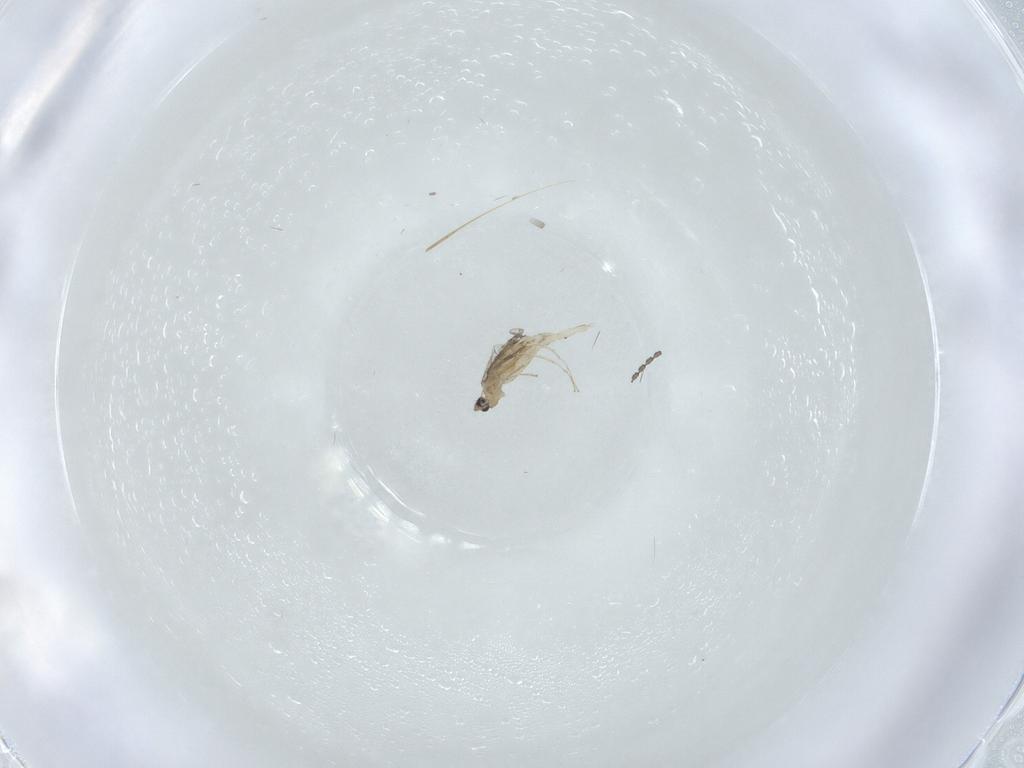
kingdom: Animalia
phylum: Arthropoda
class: Insecta
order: Diptera
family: Cecidomyiidae
